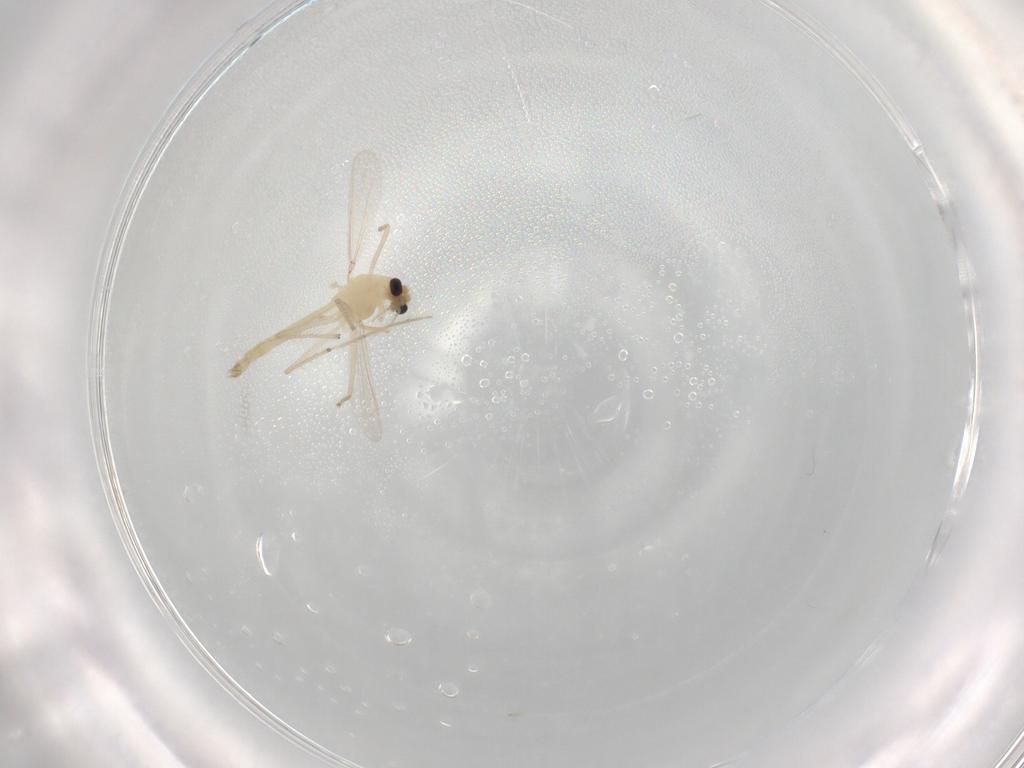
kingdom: Animalia
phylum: Arthropoda
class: Insecta
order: Diptera
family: Chironomidae
